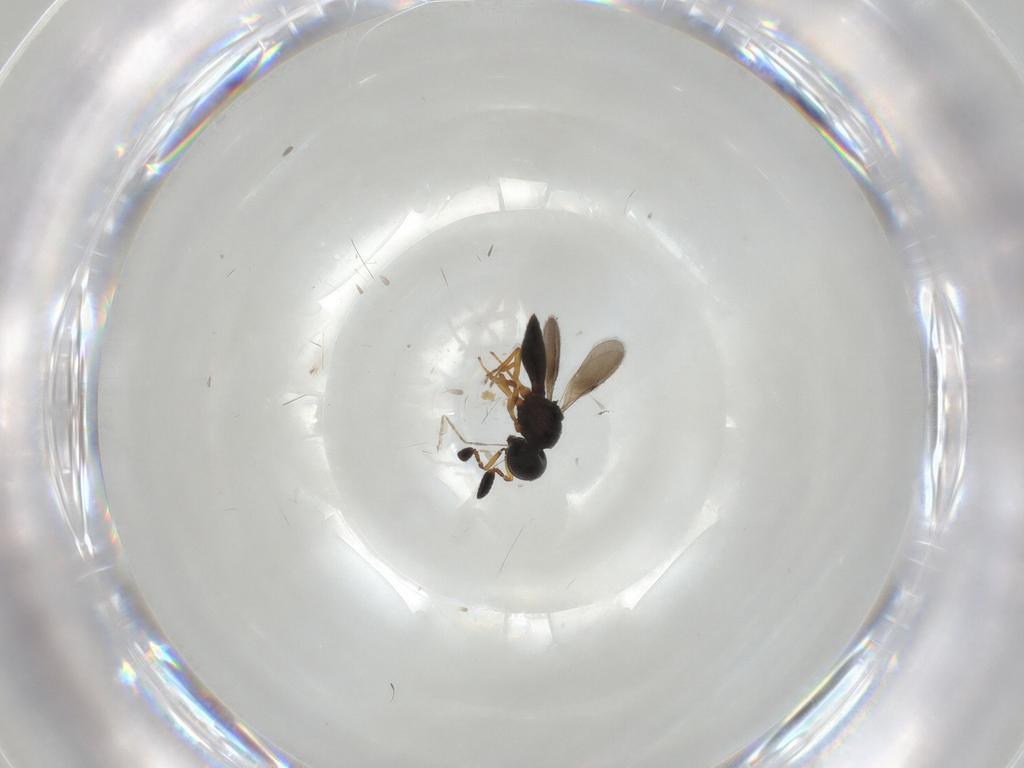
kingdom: Animalia
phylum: Arthropoda
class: Insecta
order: Hymenoptera
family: Formicidae
